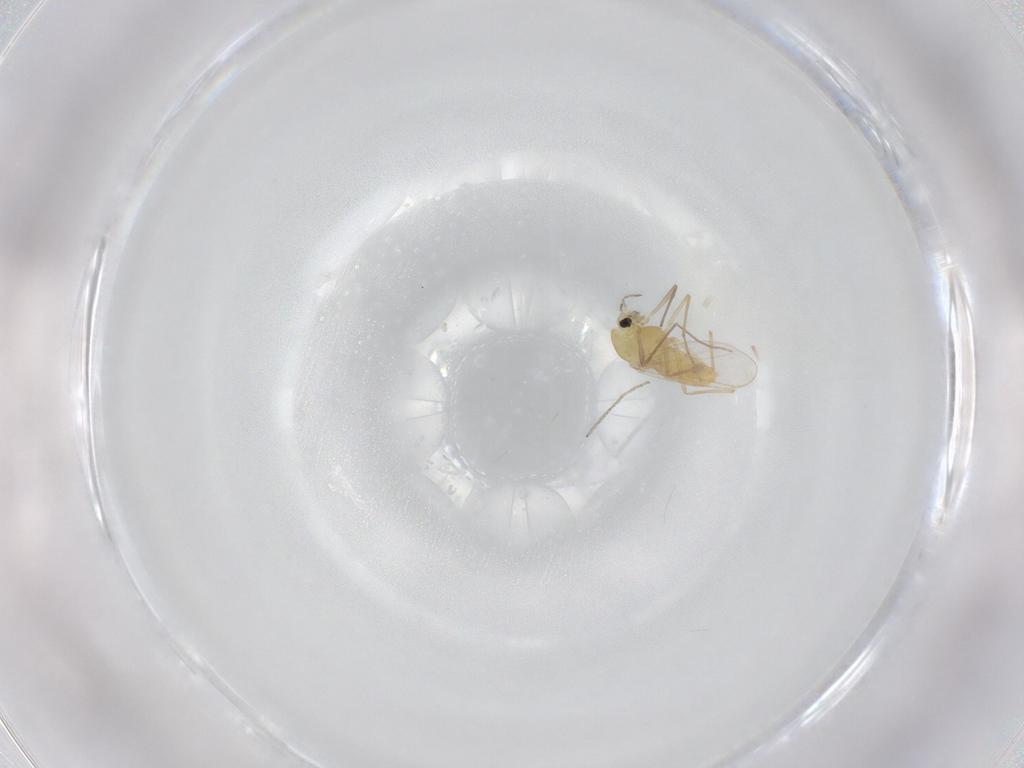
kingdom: Animalia
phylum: Arthropoda
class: Insecta
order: Diptera
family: Chironomidae
